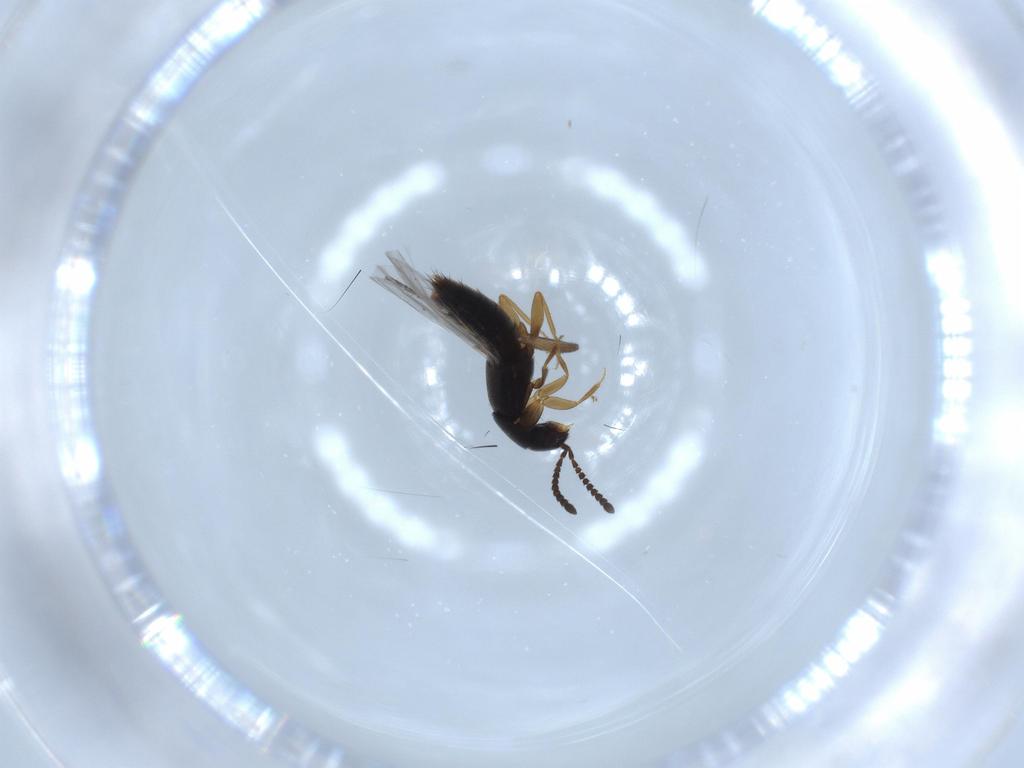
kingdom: Animalia
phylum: Arthropoda
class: Insecta
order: Coleoptera
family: Staphylinidae
